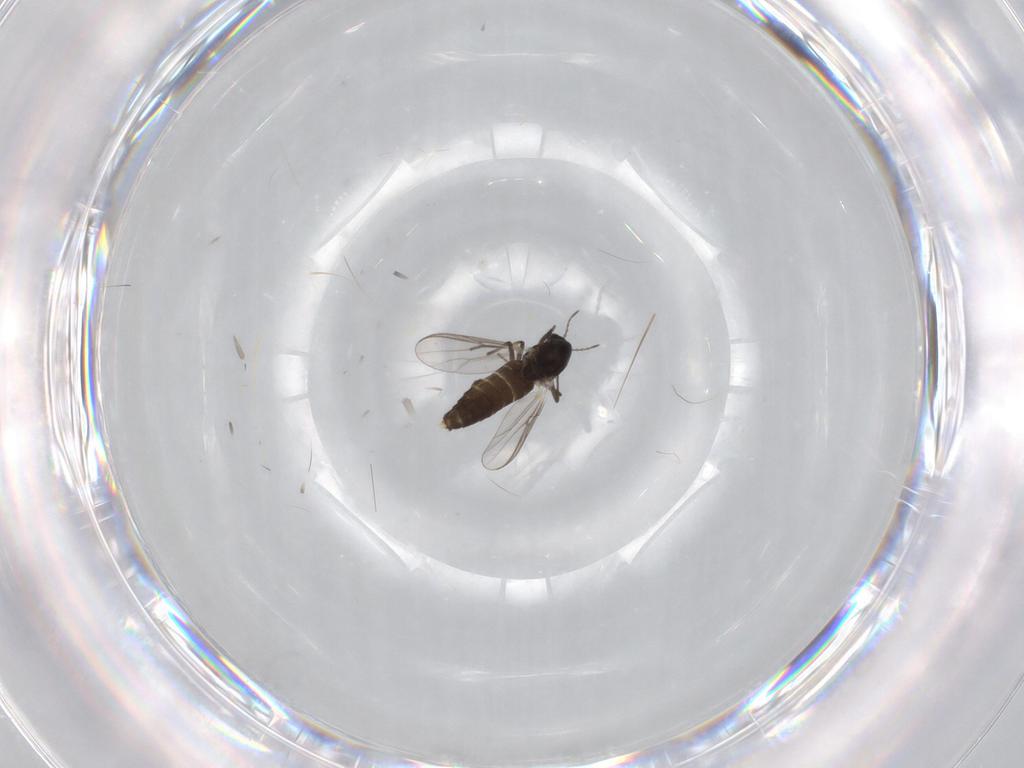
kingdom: Animalia
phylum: Arthropoda
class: Insecta
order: Diptera
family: Chironomidae
